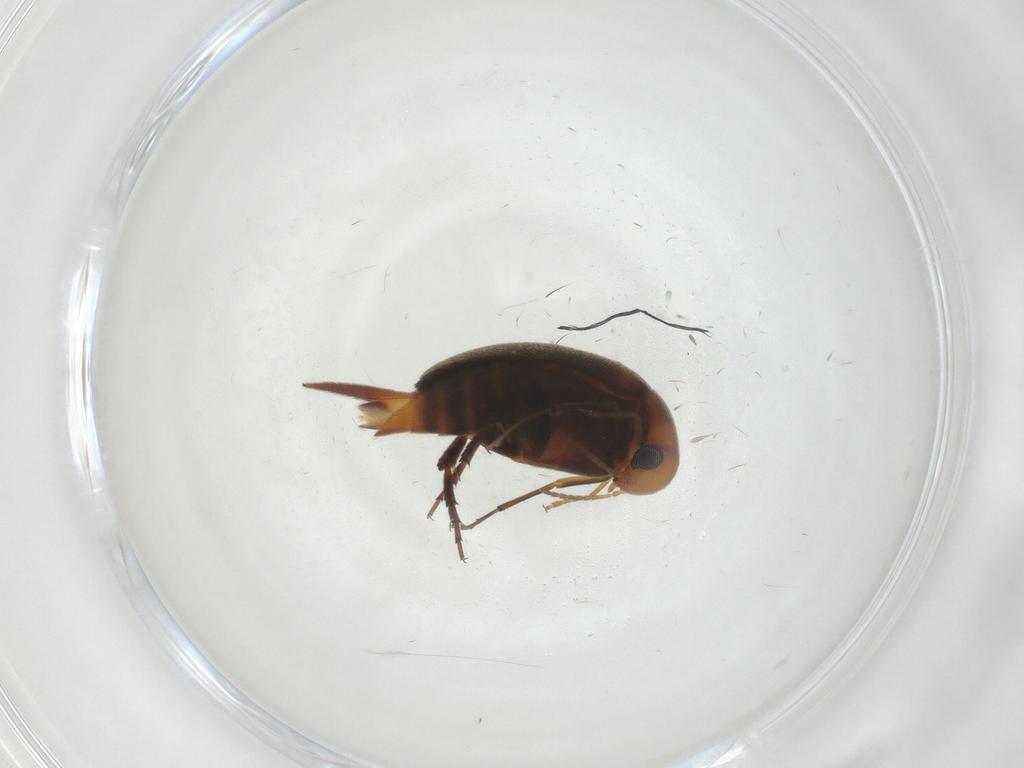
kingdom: Animalia
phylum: Arthropoda
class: Insecta
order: Coleoptera
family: Mordellidae
